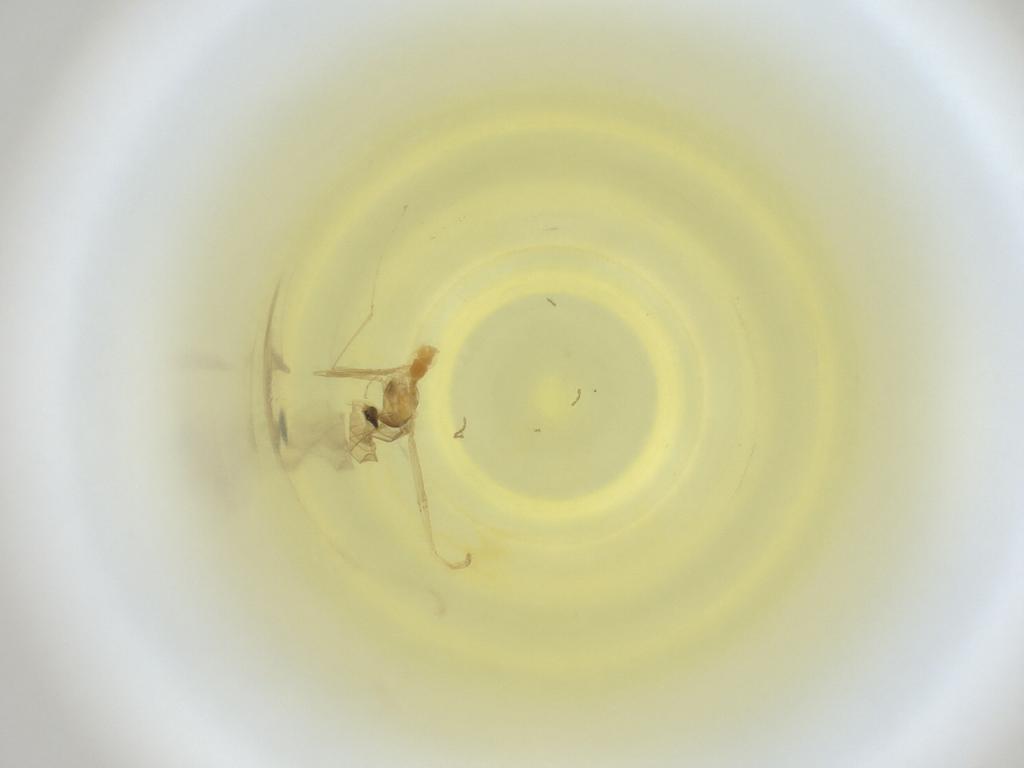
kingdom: Animalia
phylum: Arthropoda
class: Insecta
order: Diptera
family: Cecidomyiidae
